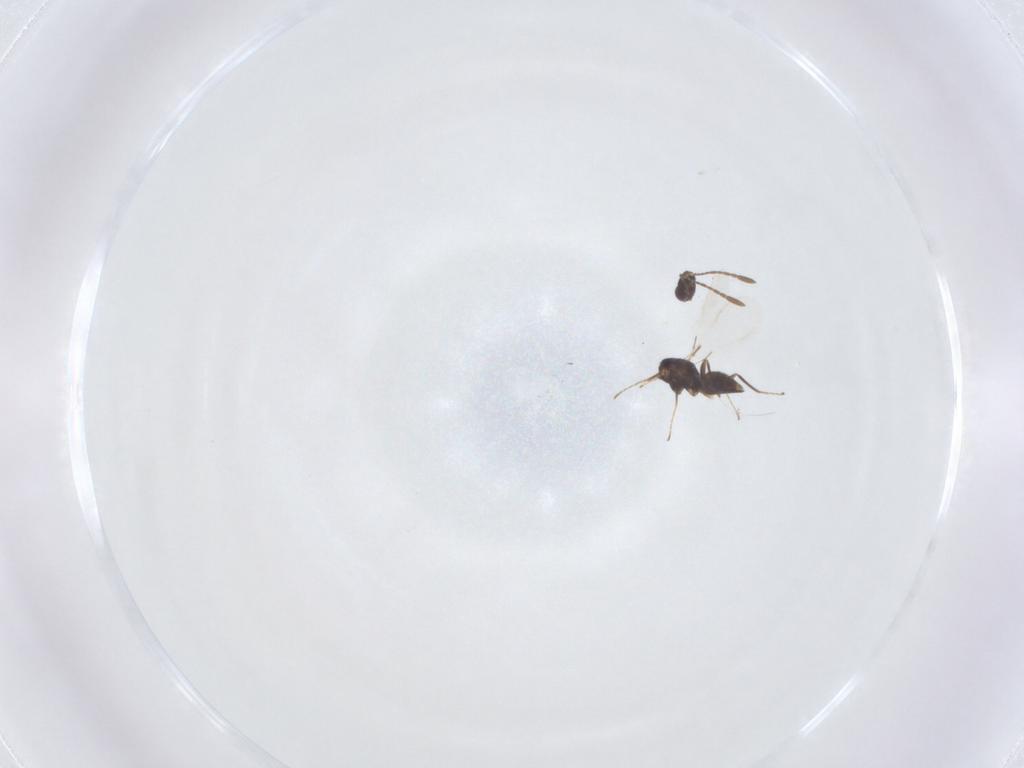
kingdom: Animalia
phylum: Arthropoda
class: Insecta
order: Hymenoptera
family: Mymaridae
